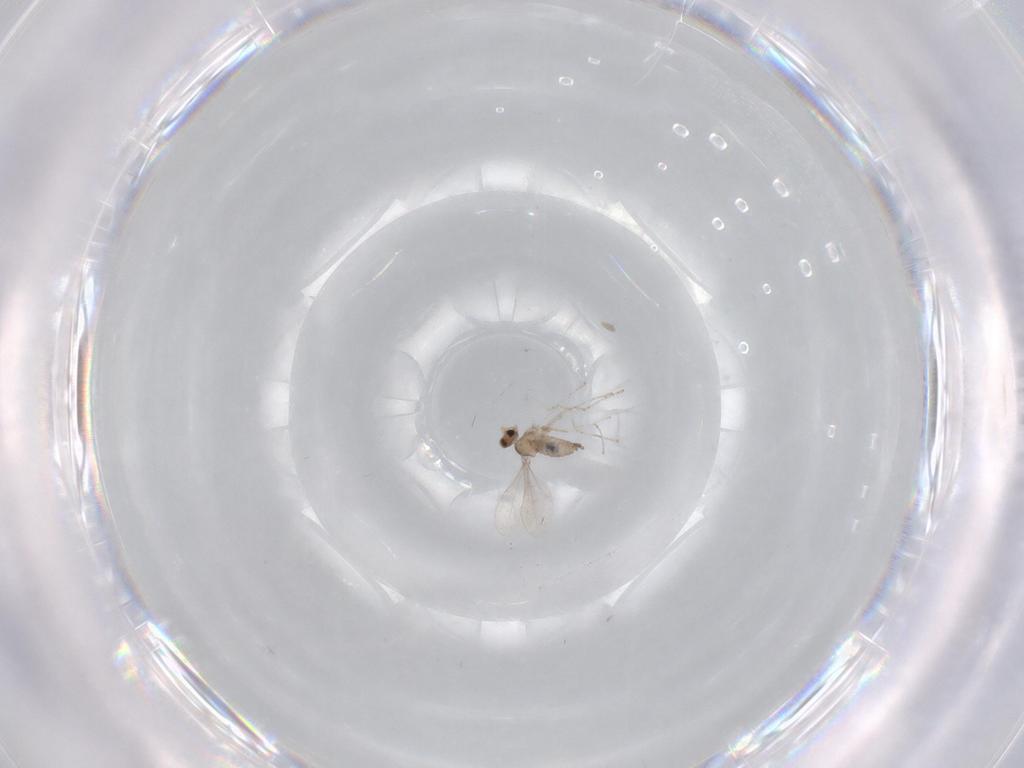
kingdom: Animalia
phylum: Arthropoda
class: Insecta
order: Diptera
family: Cecidomyiidae
